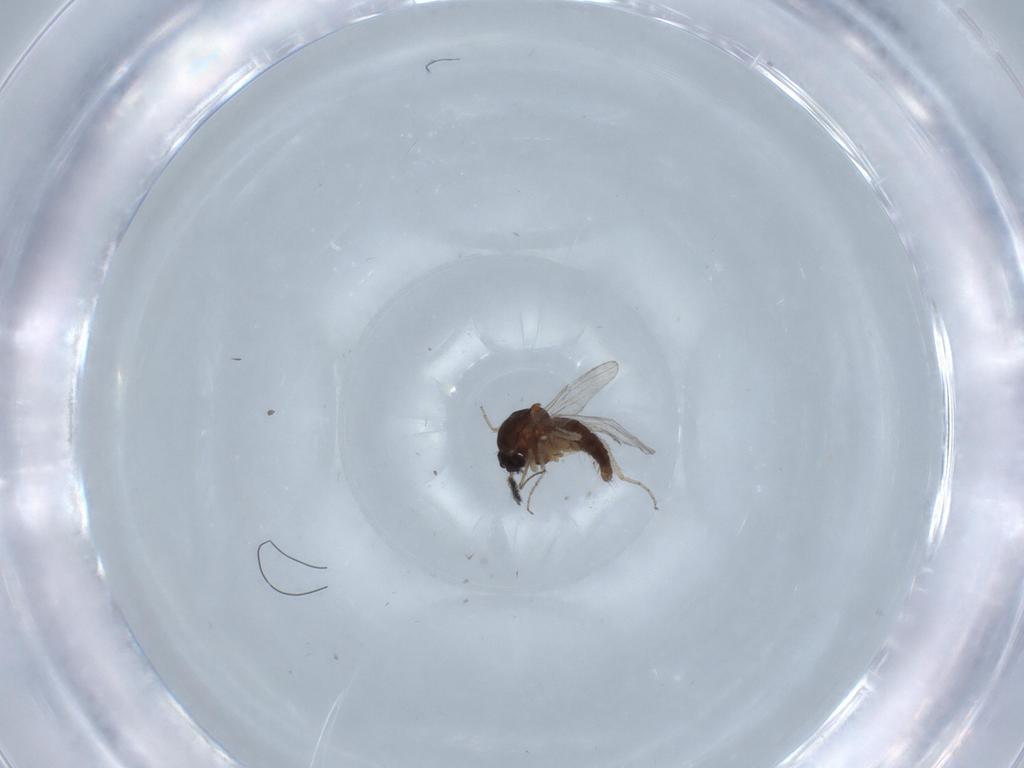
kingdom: Animalia
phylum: Arthropoda
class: Insecta
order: Diptera
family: Ceratopogonidae
